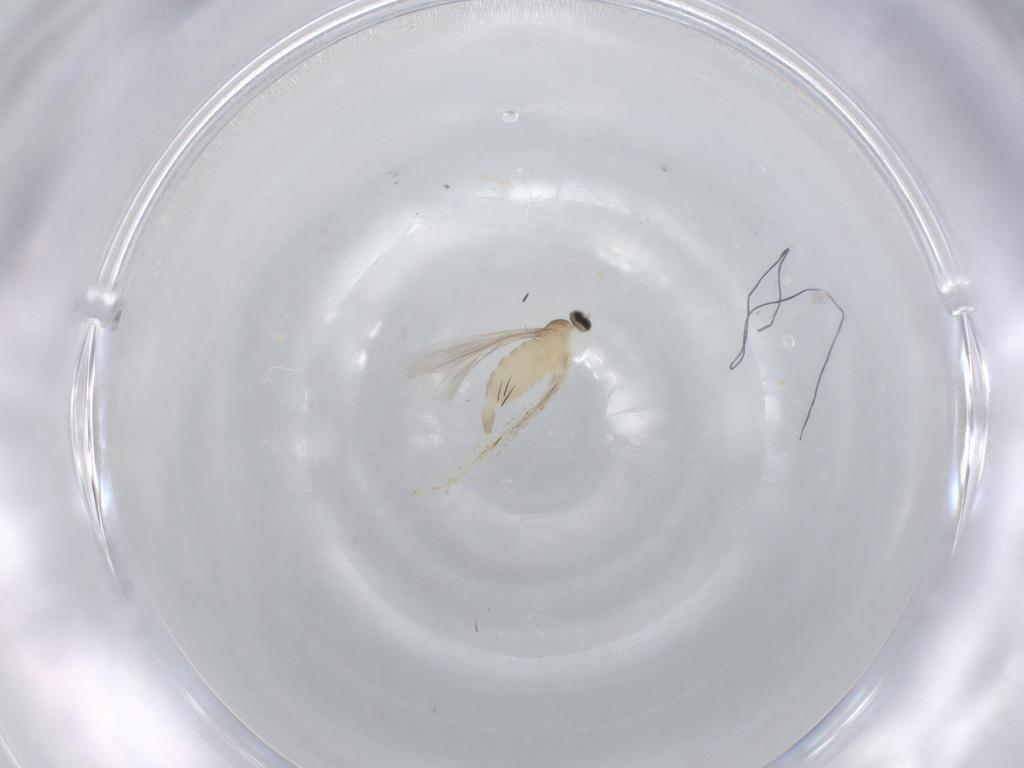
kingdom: Animalia
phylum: Arthropoda
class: Insecta
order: Diptera
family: Cecidomyiidae
